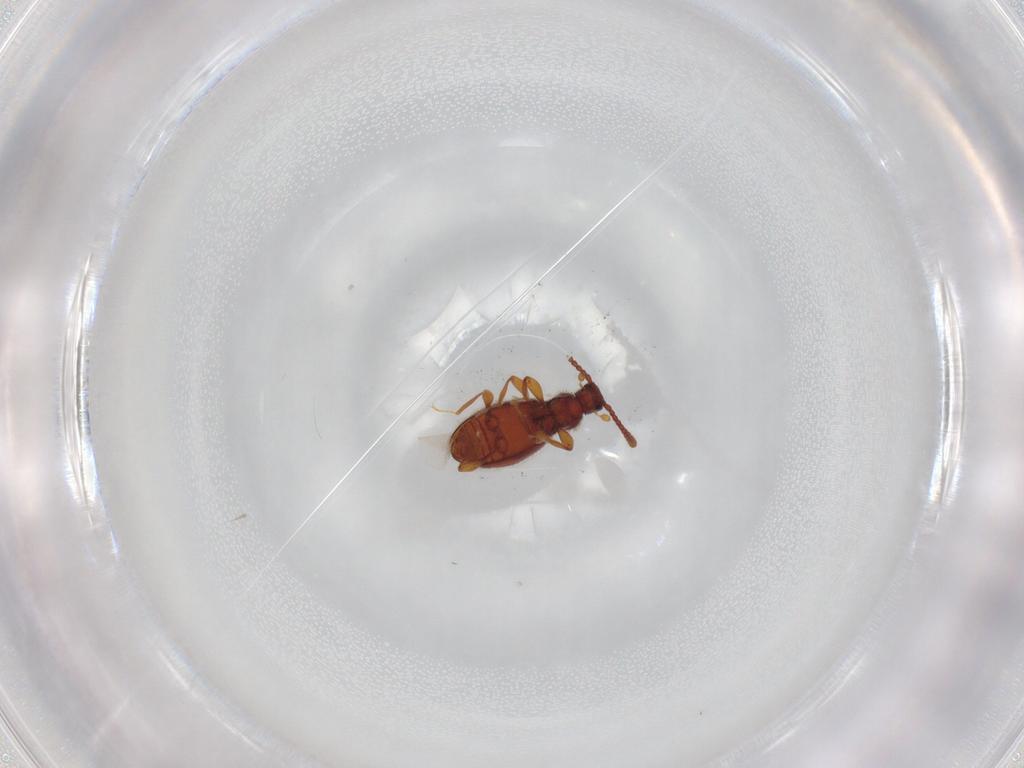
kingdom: Animalia
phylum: Arthropoda
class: Insecta
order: Coleoptera
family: Staphylinidae
